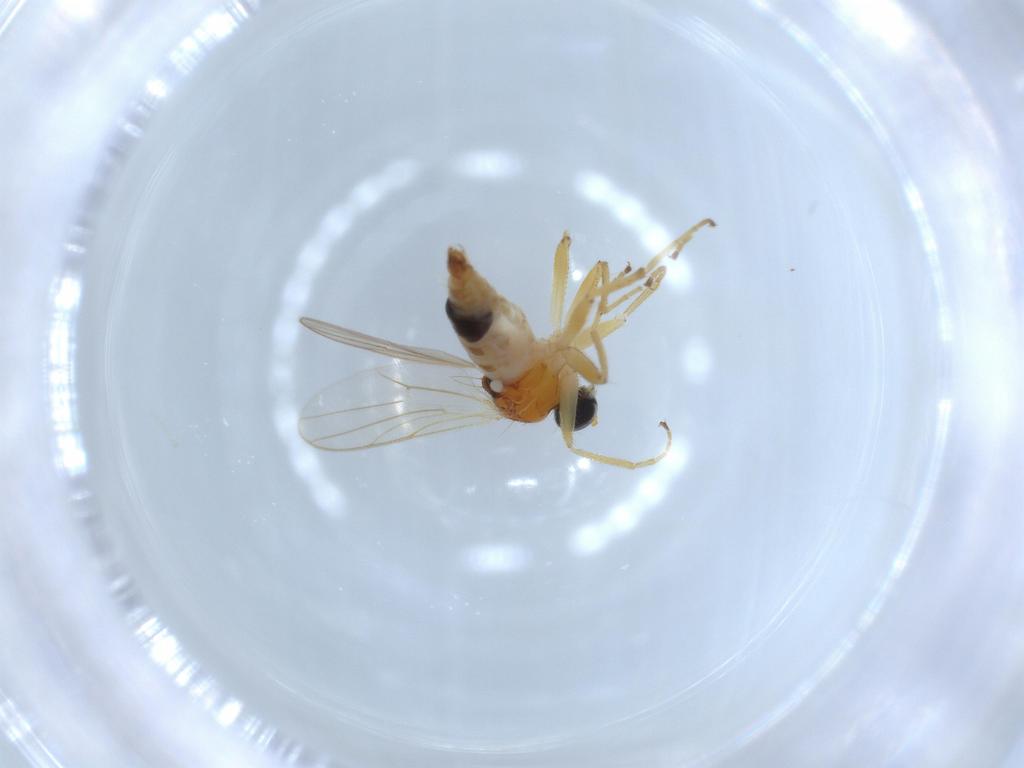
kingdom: Animalia
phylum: Arthropoda
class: Insecta
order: Diptera
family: Hybotidae
